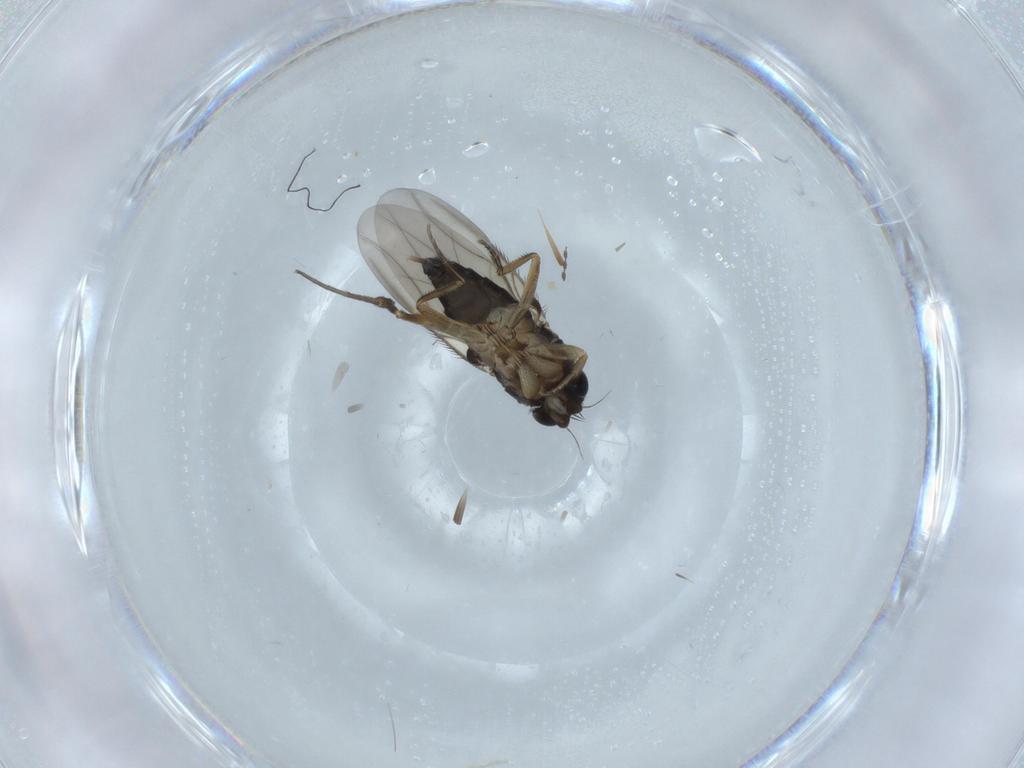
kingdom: Animalia
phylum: Arthropoda
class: Insecta
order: Diptera
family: Phoridae
